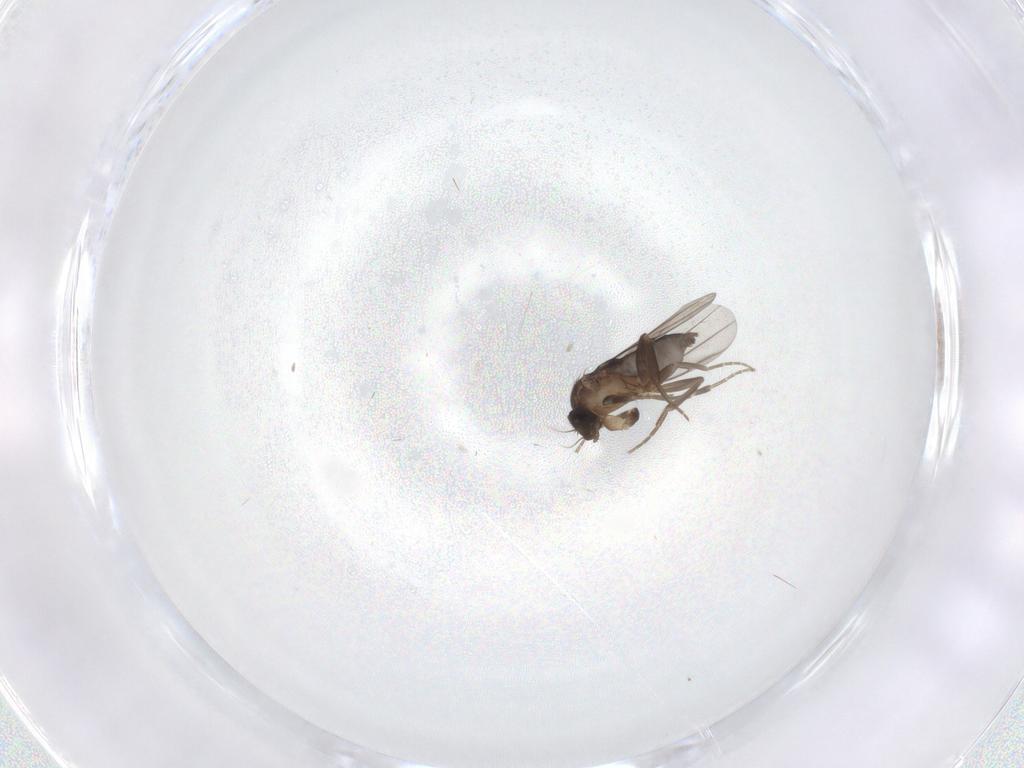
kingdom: Animalia
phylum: Arthropoda
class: Insecta
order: Diptera
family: Phoridae
